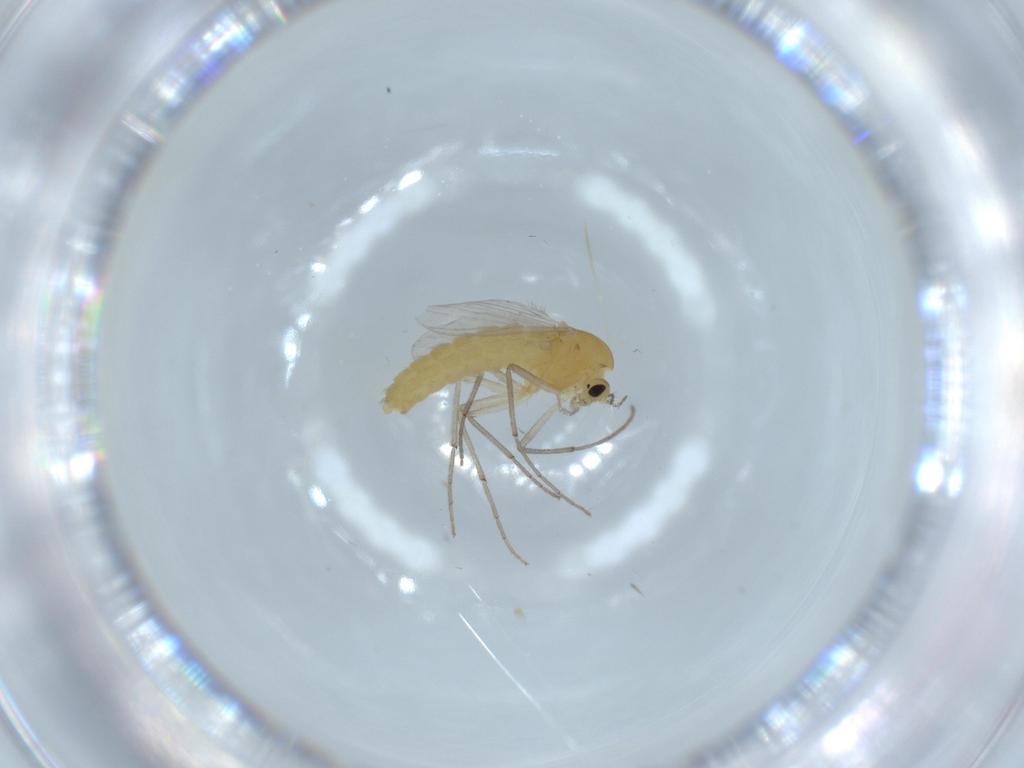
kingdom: Animalia
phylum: Arthropoda
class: Insecta
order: Diptera
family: Chironomidae
